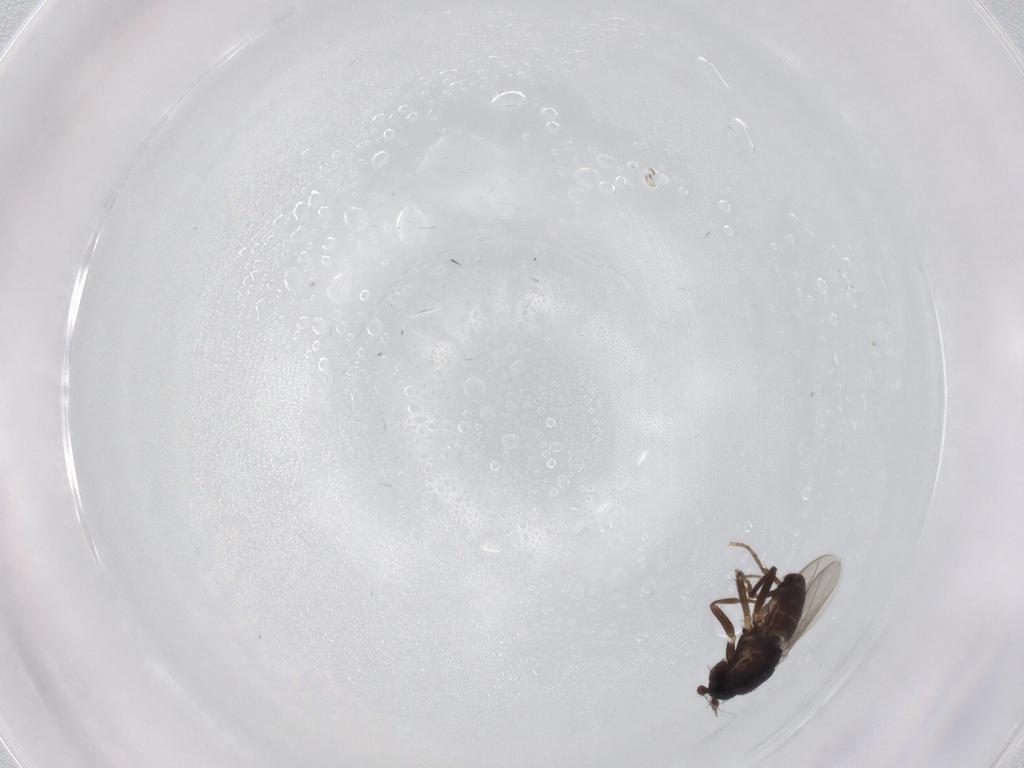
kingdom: Animalia
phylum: Arthropoda
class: Insecta
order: Diptera
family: Sphaeroceridae
